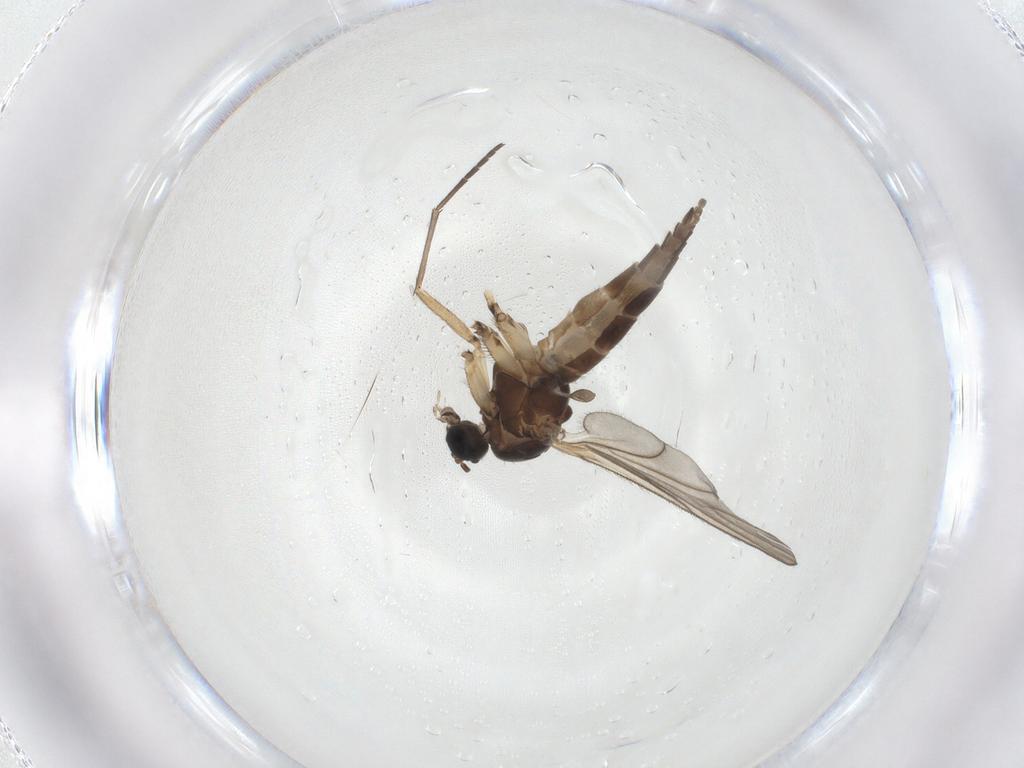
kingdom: Animalia
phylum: Arthropoda
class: Insecta
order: Diptera
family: Sciaridae
